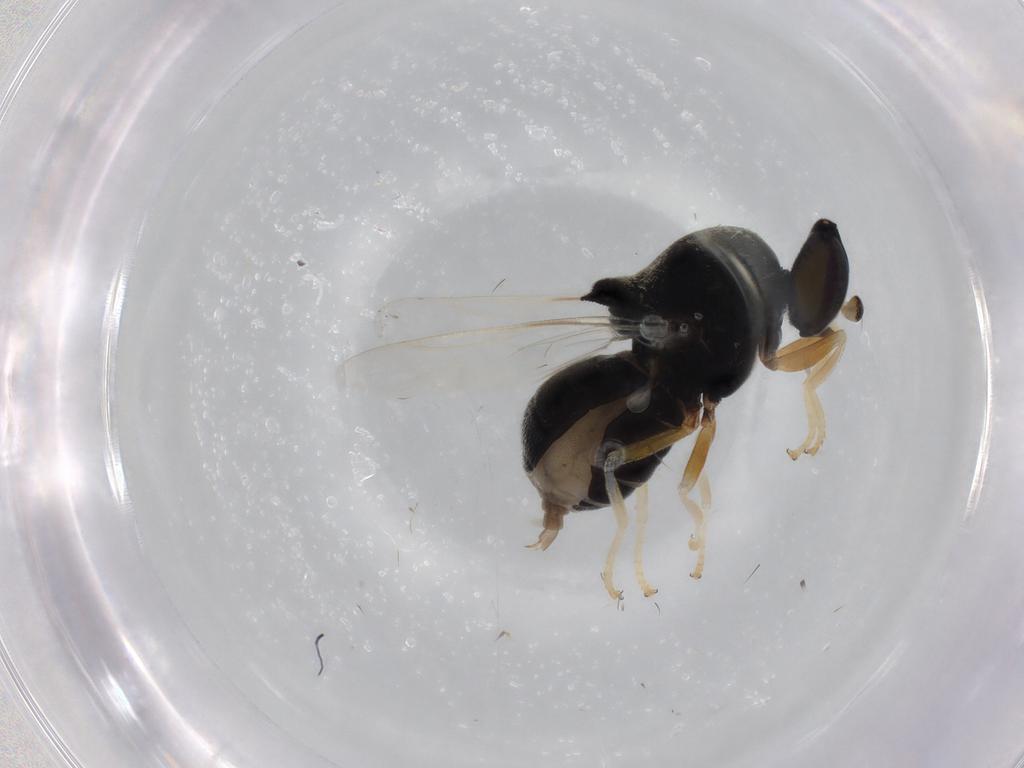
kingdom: Animalia
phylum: Arthropoda
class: Insecta
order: Diptera
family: Stratiomyidae
